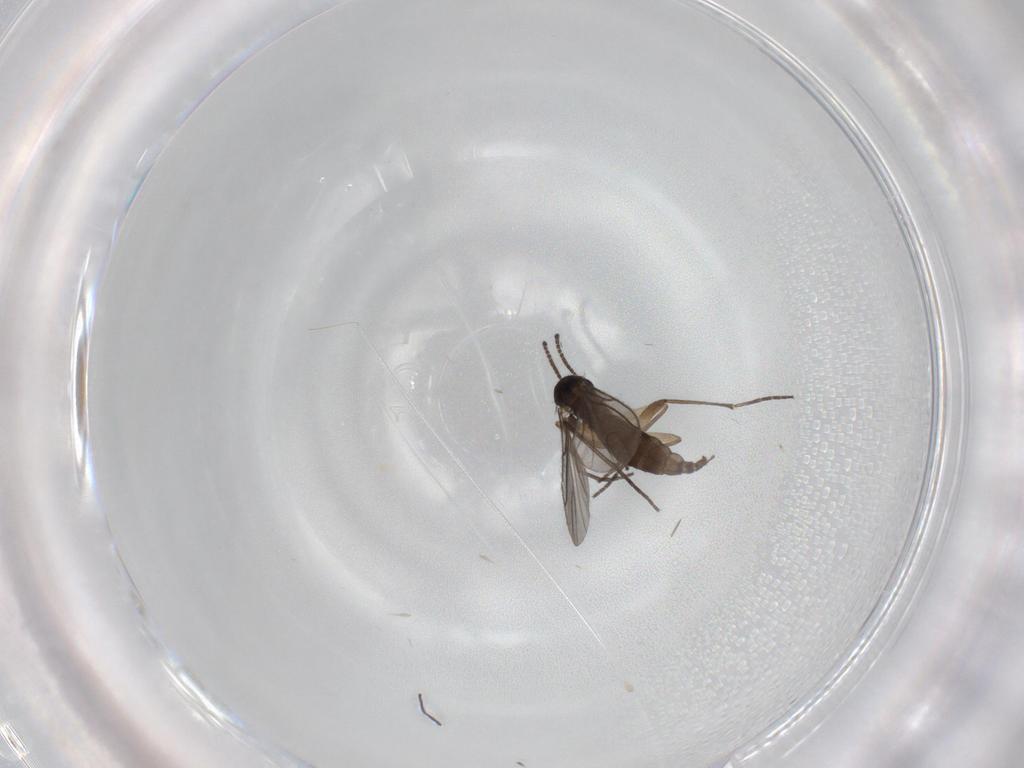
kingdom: Animalia
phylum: Arthropoda
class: Insecta
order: Diptera
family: Sciaridae
